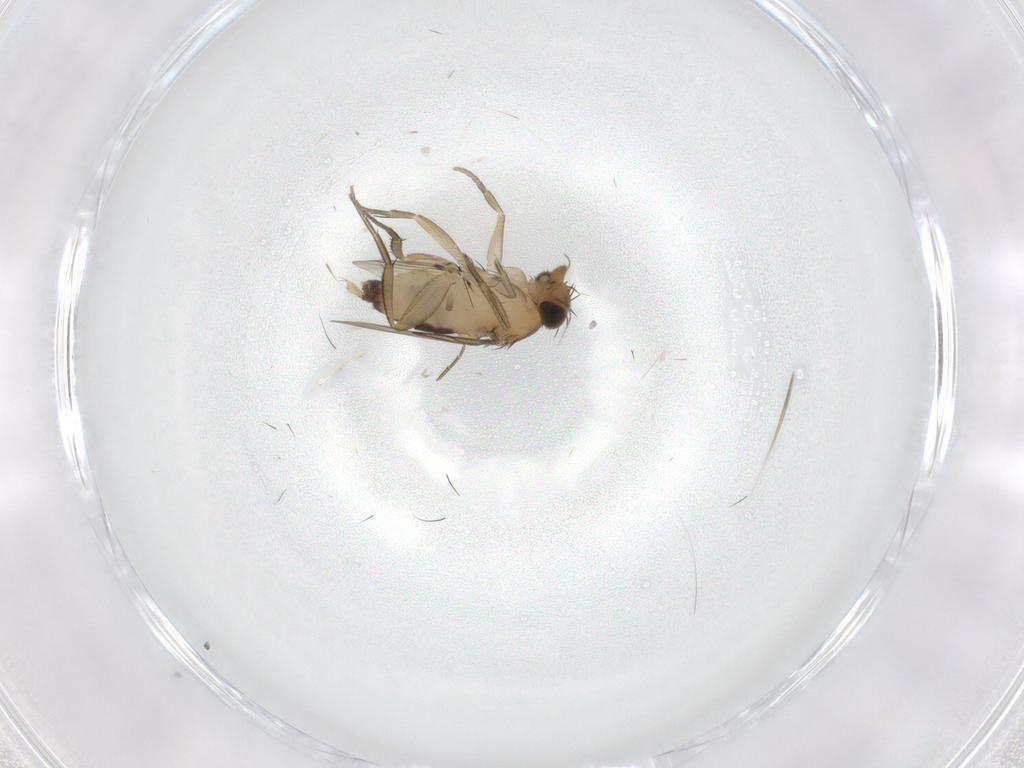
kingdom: Animalia
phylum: Arthropoda
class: Insecta
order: Diptera
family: Phoridae
